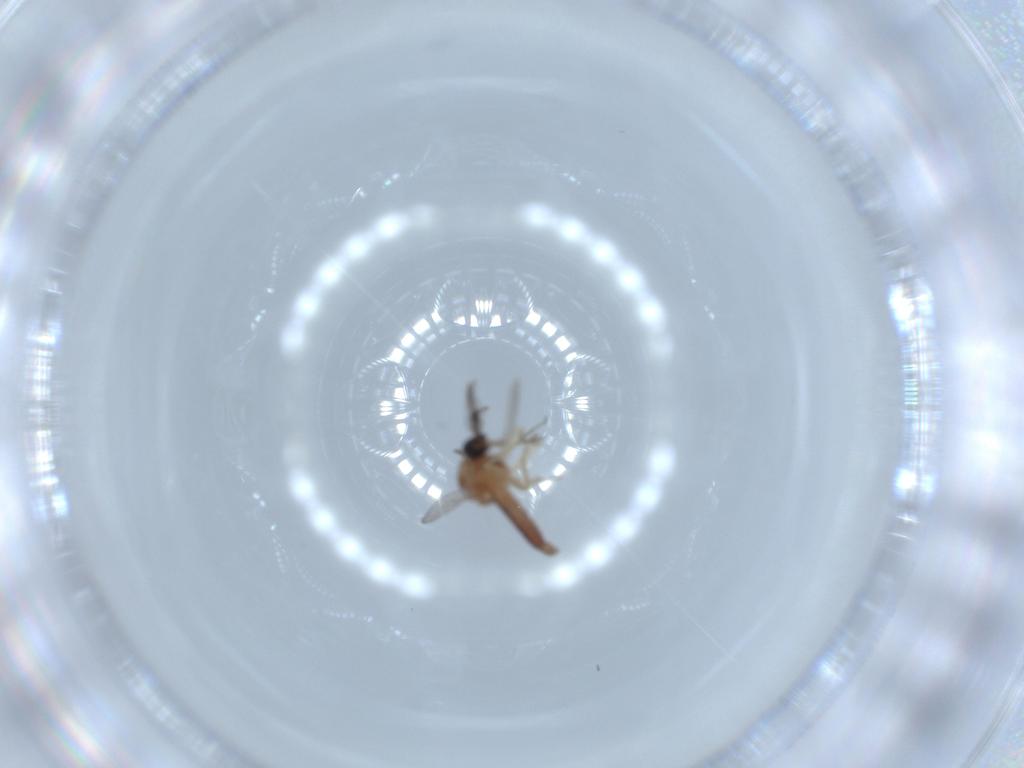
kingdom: Animalia
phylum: Arthropoda
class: Insecta
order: Diptera
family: Ceratopogonidae
